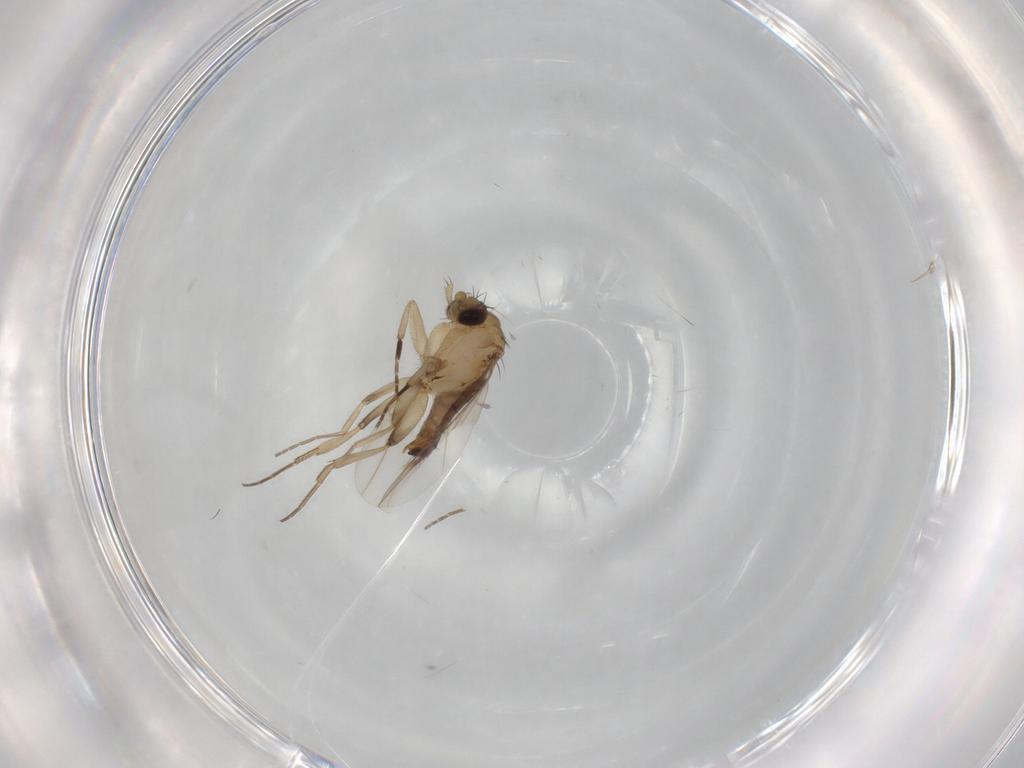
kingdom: Animalia
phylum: Arthropoda
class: Insecta
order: Diptera
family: Phoridae
